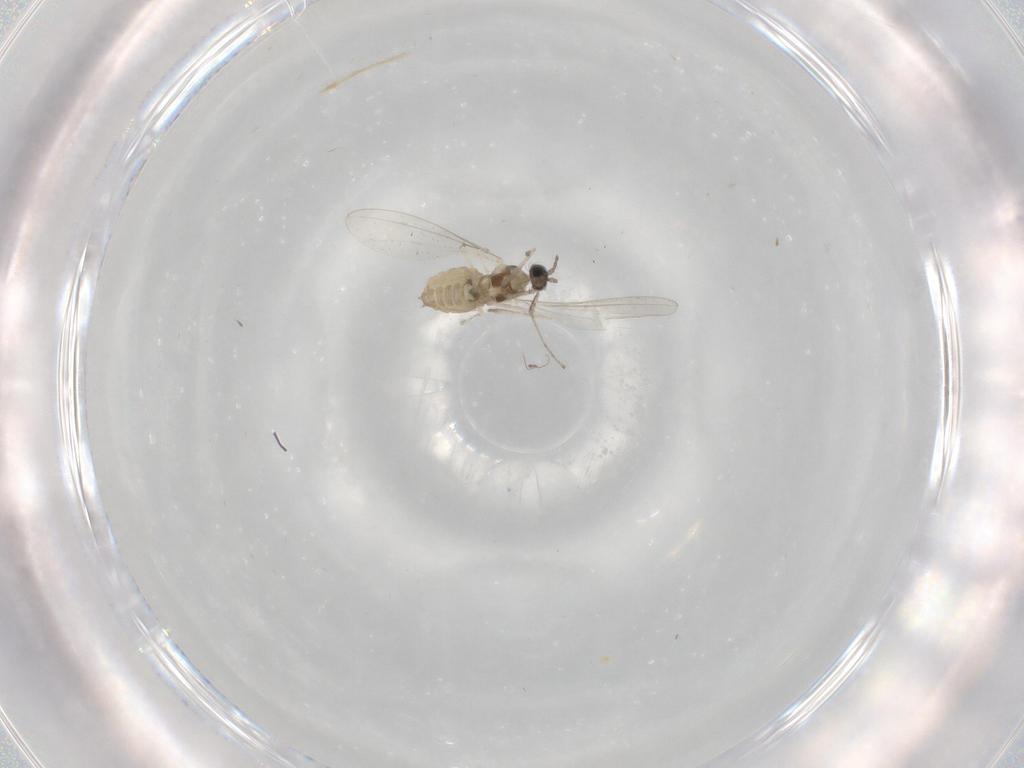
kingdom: Animalia
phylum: Arthropoda
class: Insecta
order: Diptera
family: Cecidomyiidae
